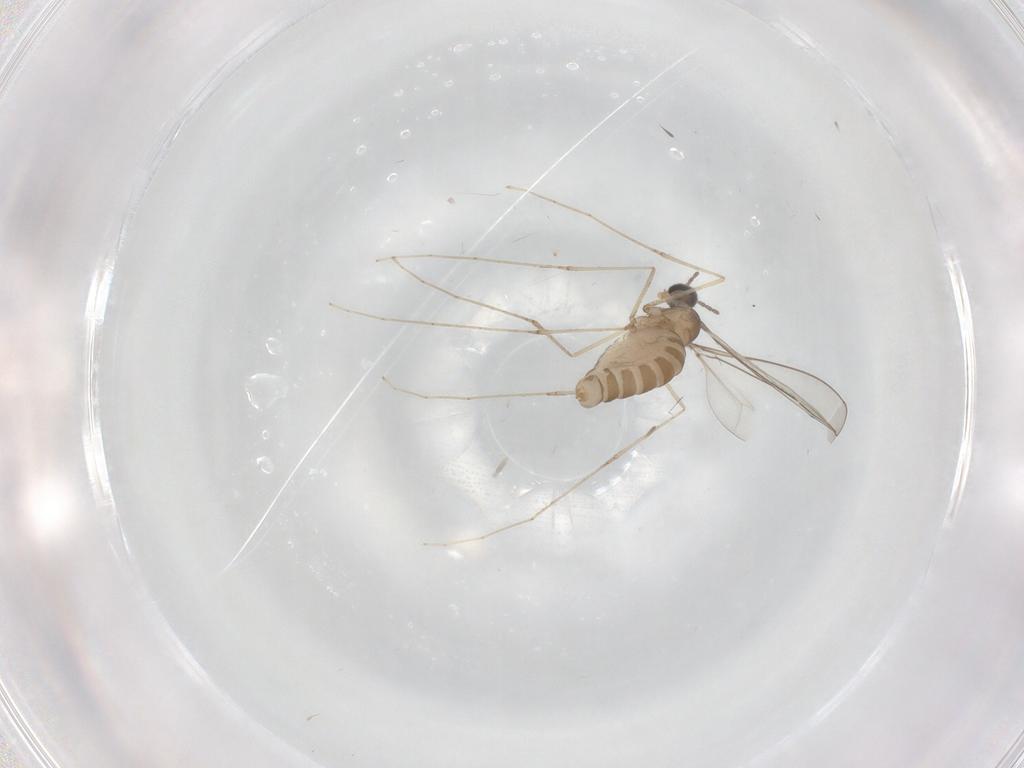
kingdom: Animalia
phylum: Arthropoda
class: Insecta
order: Diptera
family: Cecidomyiidae
